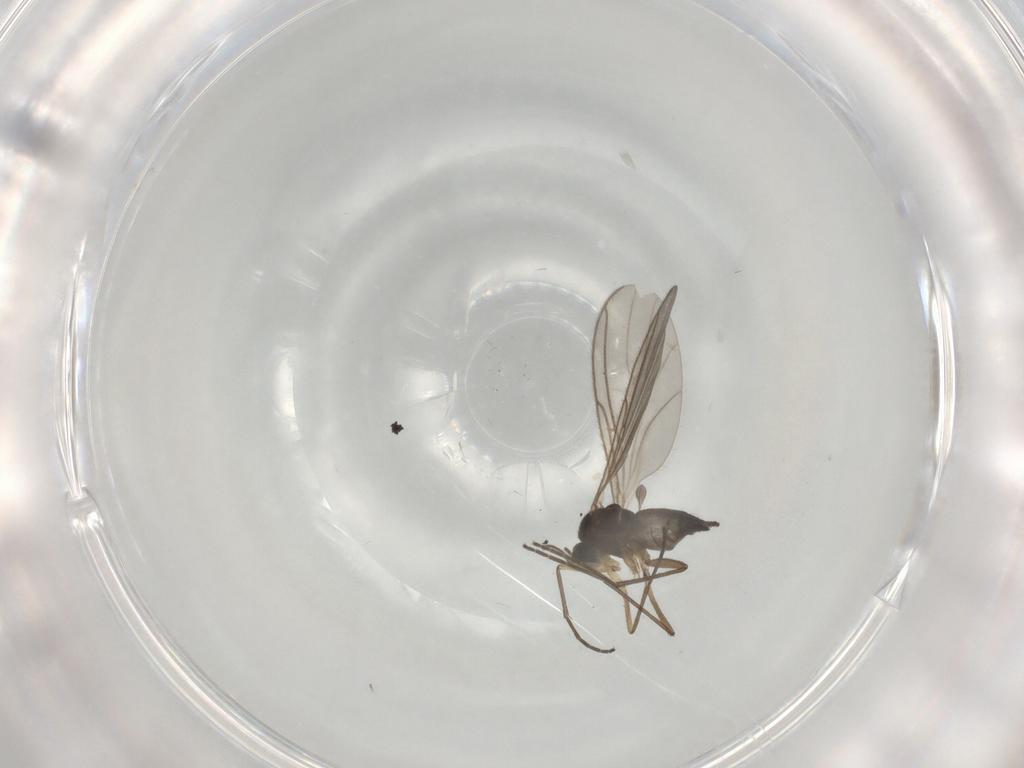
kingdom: Animalia
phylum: Arthropoda
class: Insecta
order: Diptera
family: Sciaridae
